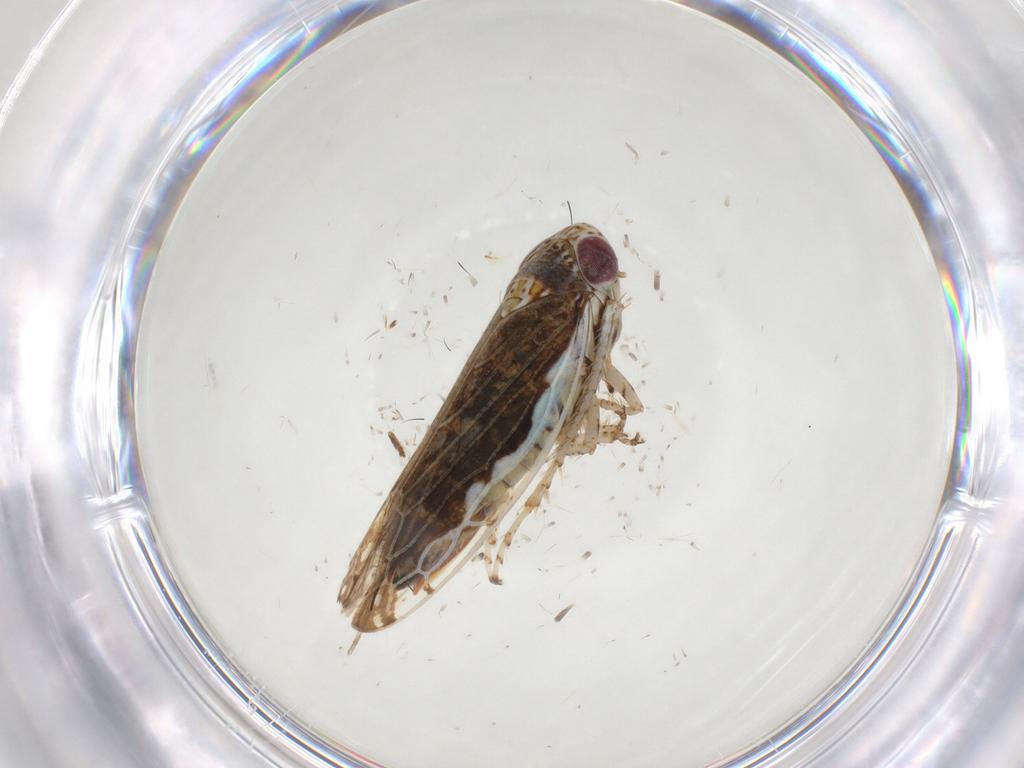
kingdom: Animalia
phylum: Arthropoda
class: Insecta
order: Hemiptera
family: Cicadellidae
